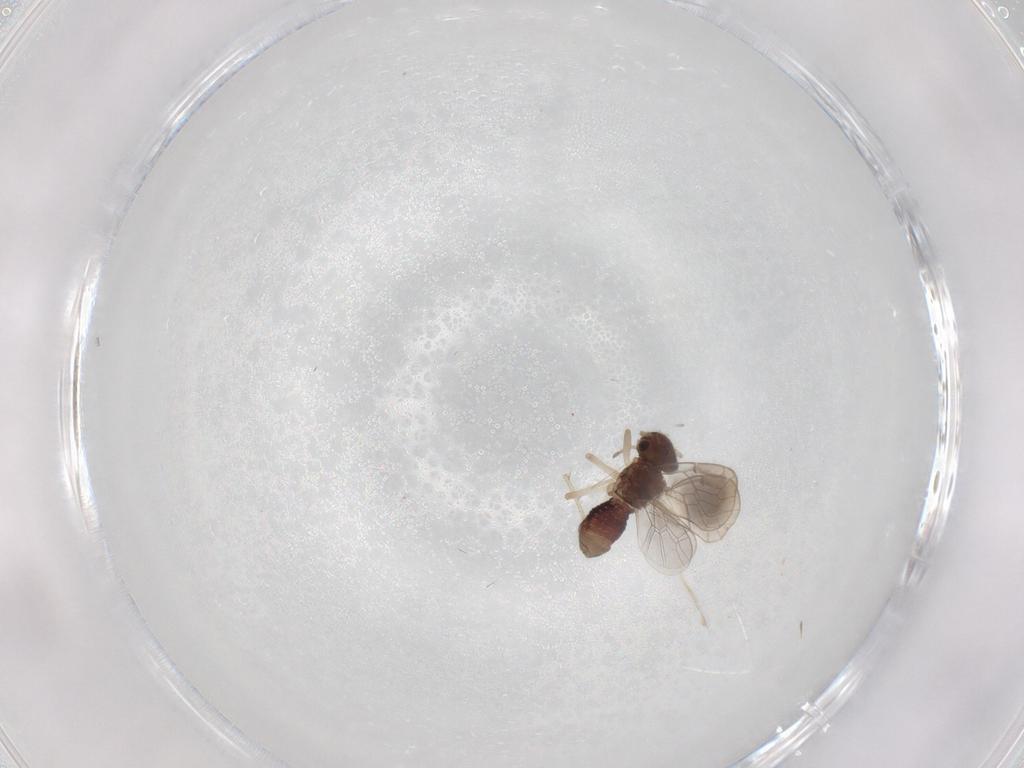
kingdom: Animalia
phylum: Arthropoda
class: Insecta
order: Psocodea
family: Ectopsocidae
